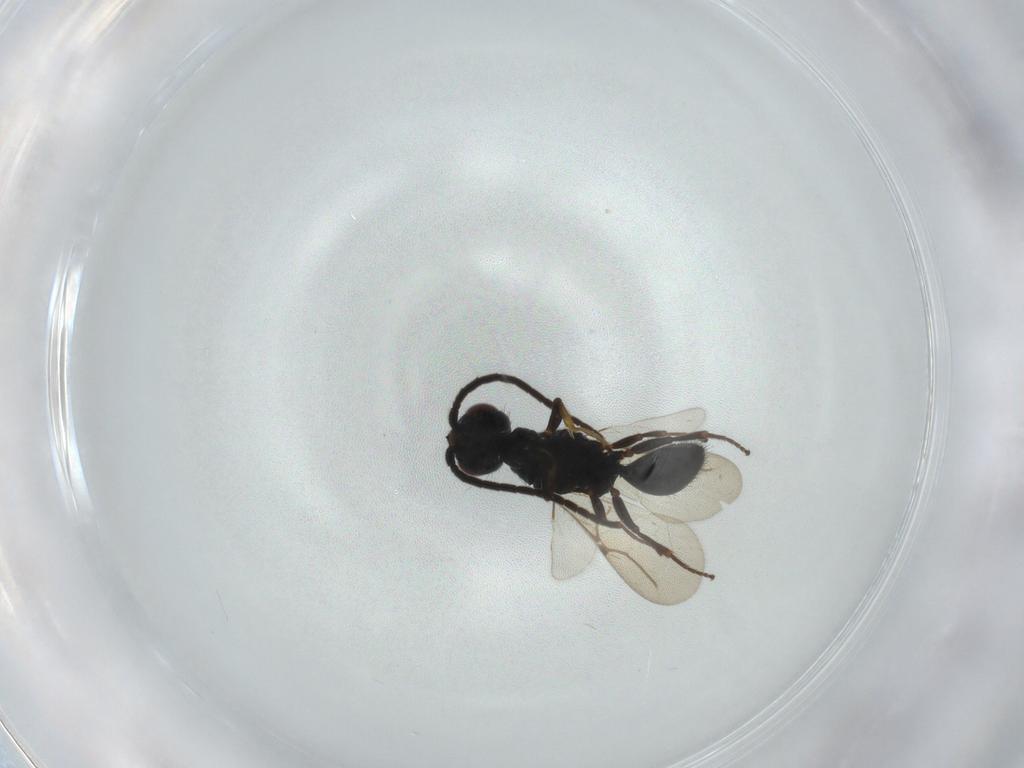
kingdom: Animalia
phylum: Arthropoda
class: Insecta
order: Hymenoptera
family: Bethylidae
